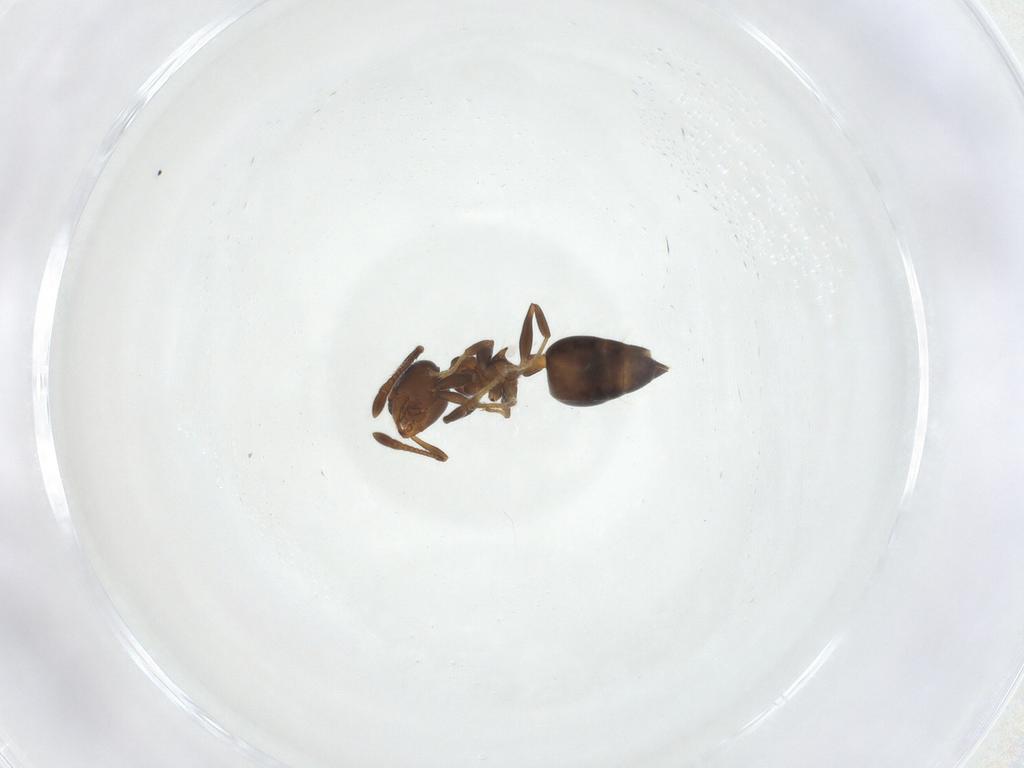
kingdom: Animalia
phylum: Arthropoda
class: Insecta
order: Hymenoptera
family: Formicidae
